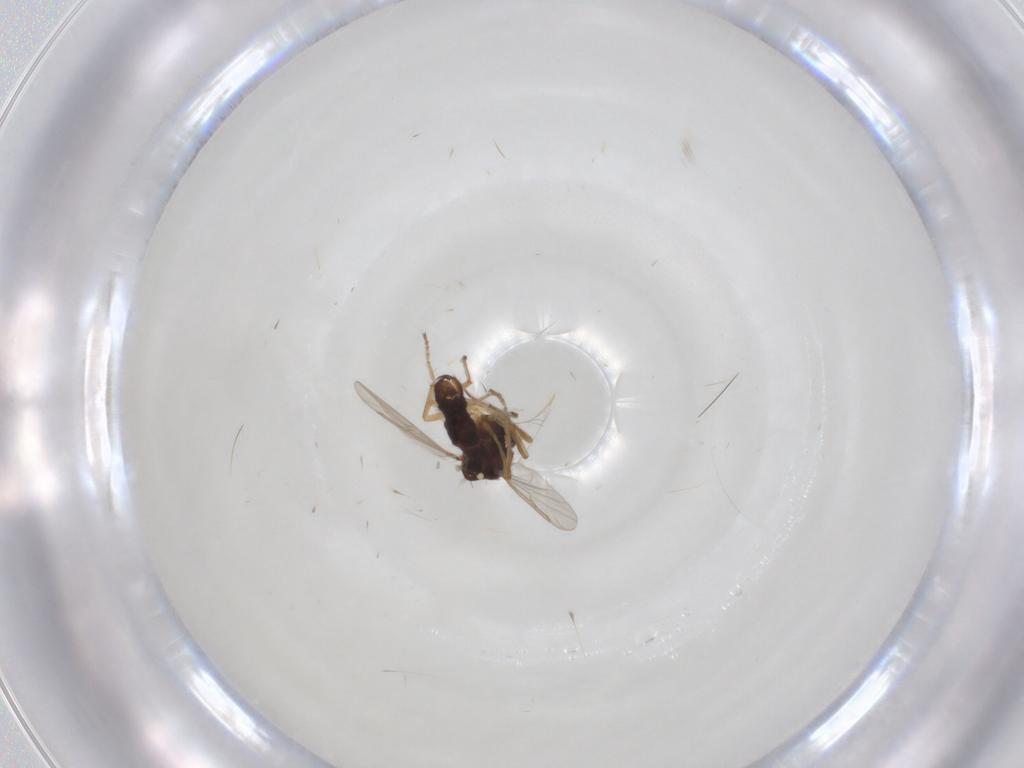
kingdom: Animalia
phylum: Arthropoda
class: Insecta
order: Diptera
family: Ceratopogonidae
